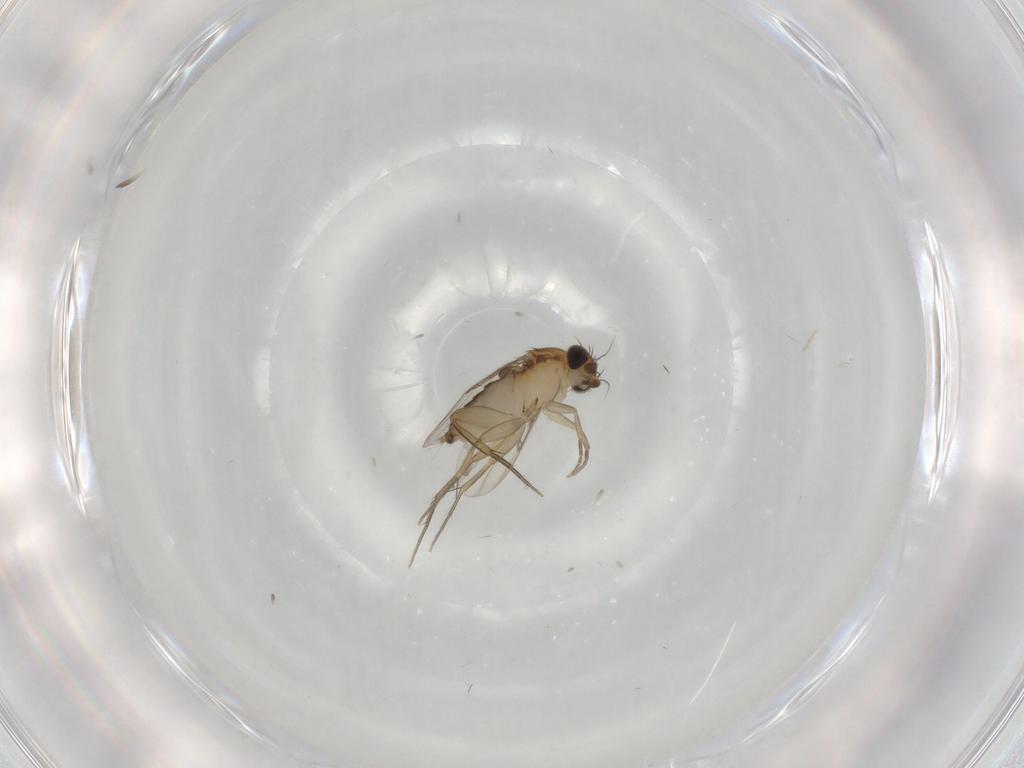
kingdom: Animalia
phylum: Arthropoda
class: Insecta
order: Diptera
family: Phoridae
